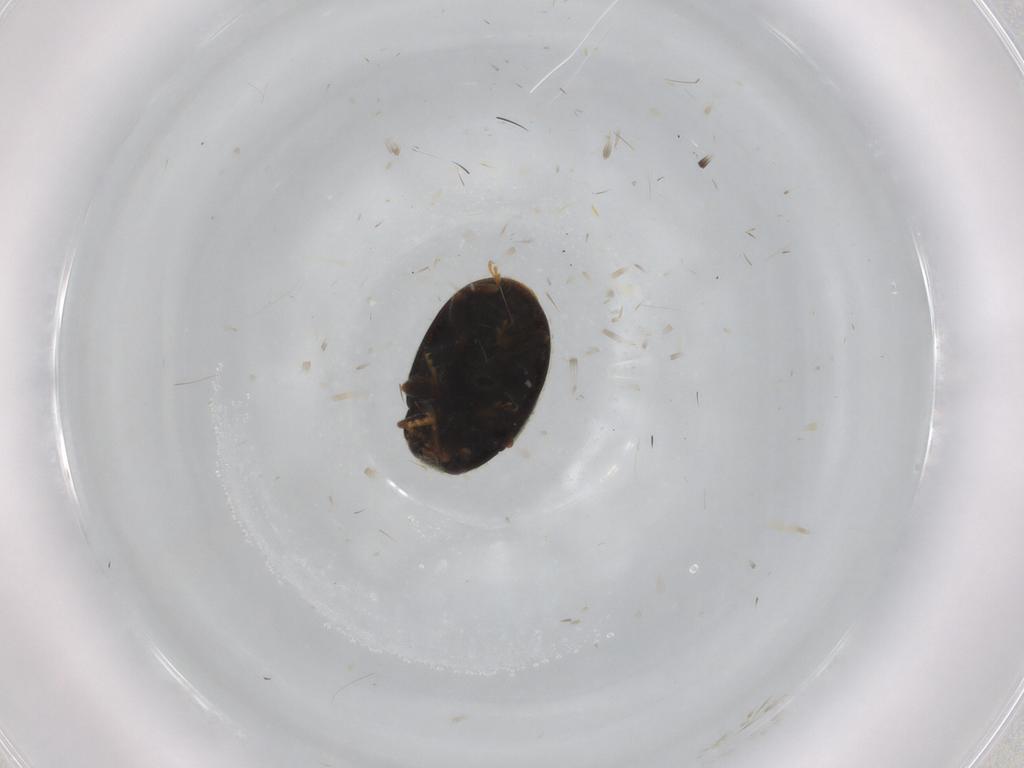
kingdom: Animalia
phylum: Arthropoda
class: Insecta
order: Coleoptera
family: Coccinellidae
